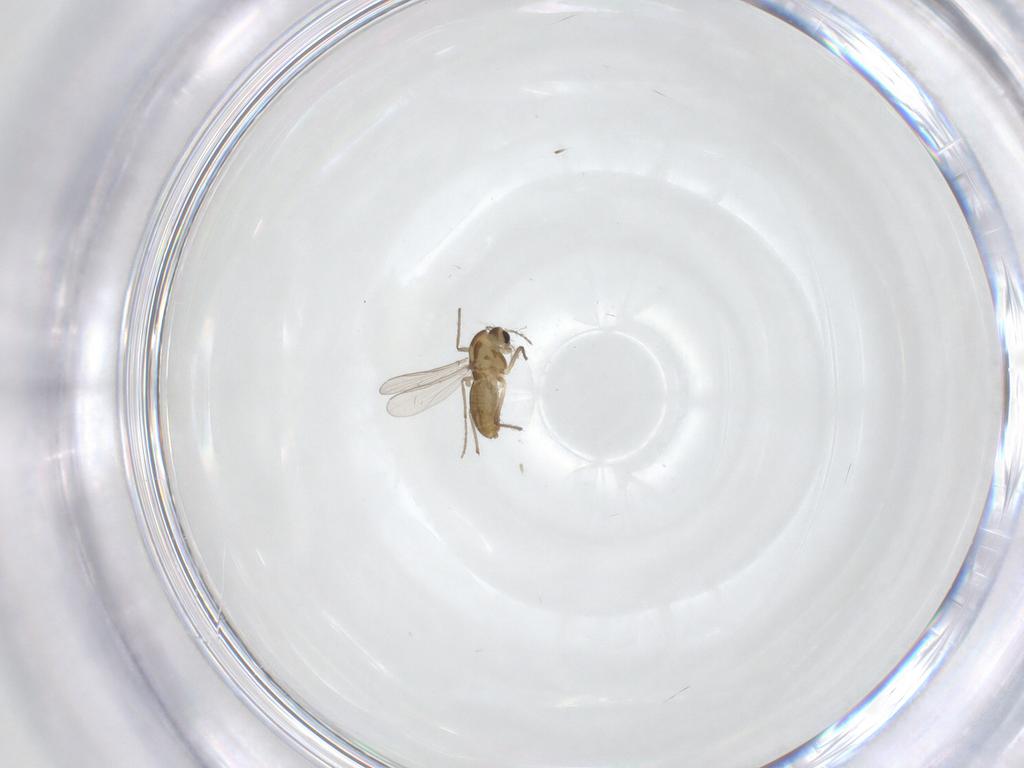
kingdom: Animalia
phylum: Arthropoda
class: Insecta
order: Diptera
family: Chironomidae
